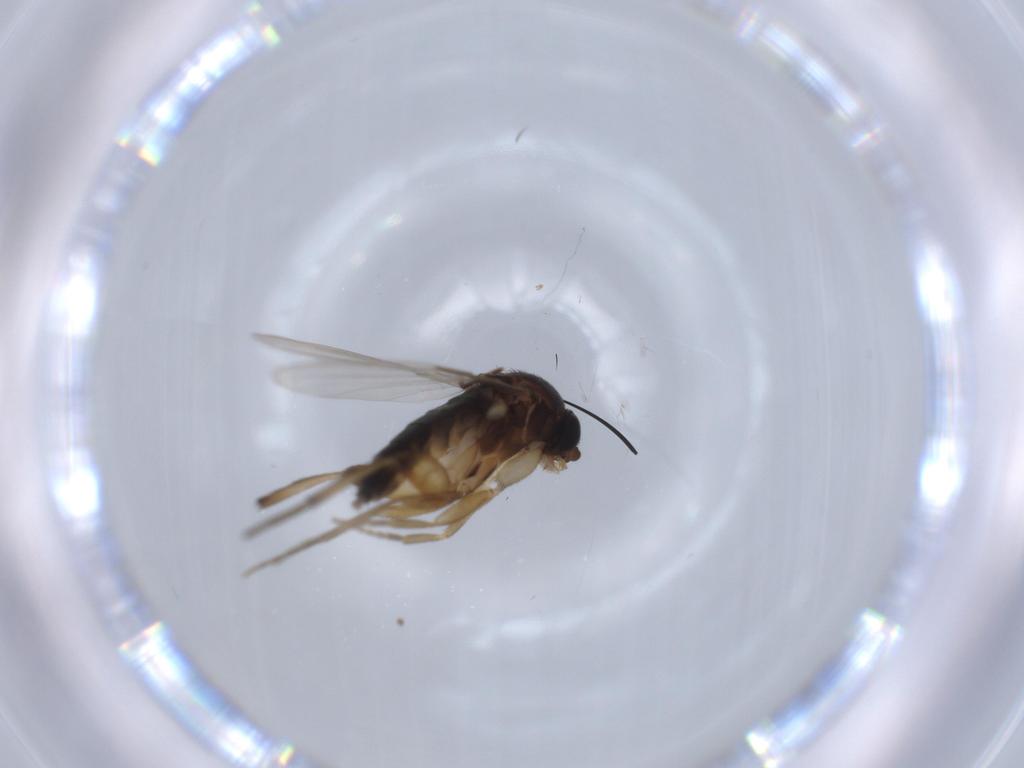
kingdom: Animalia
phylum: Arthropoda
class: Insecta
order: Diptera
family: Phoridae
